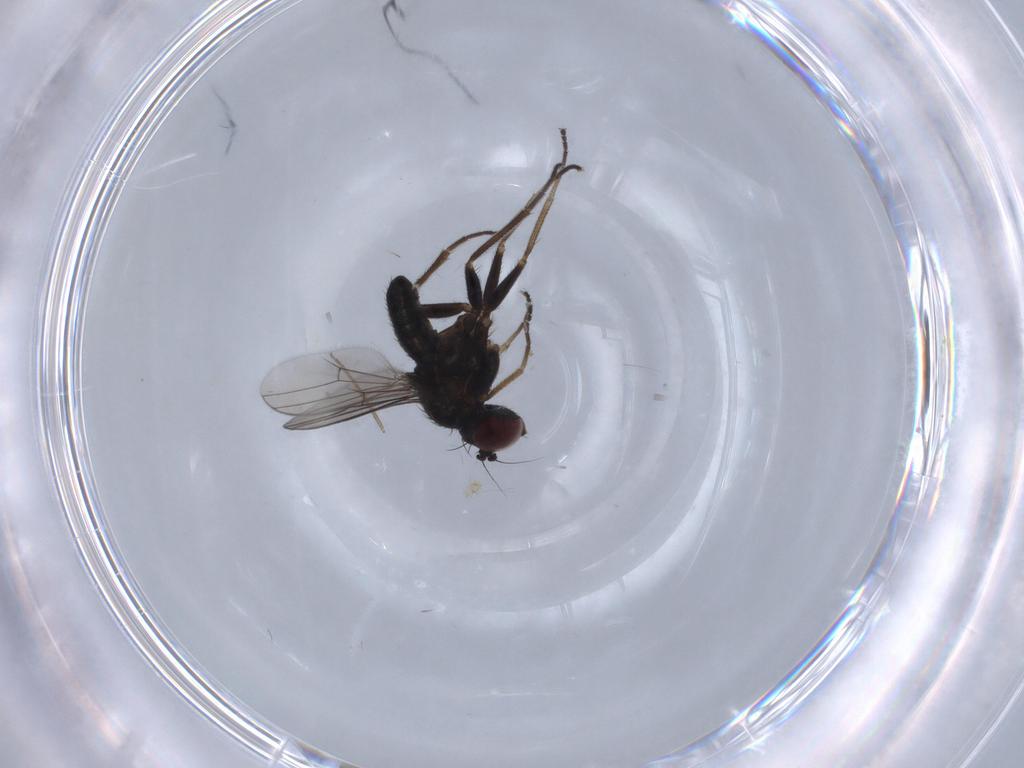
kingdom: Animalia
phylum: Arthropoda
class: Insecta
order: Diptera
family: Dolichopodidae
